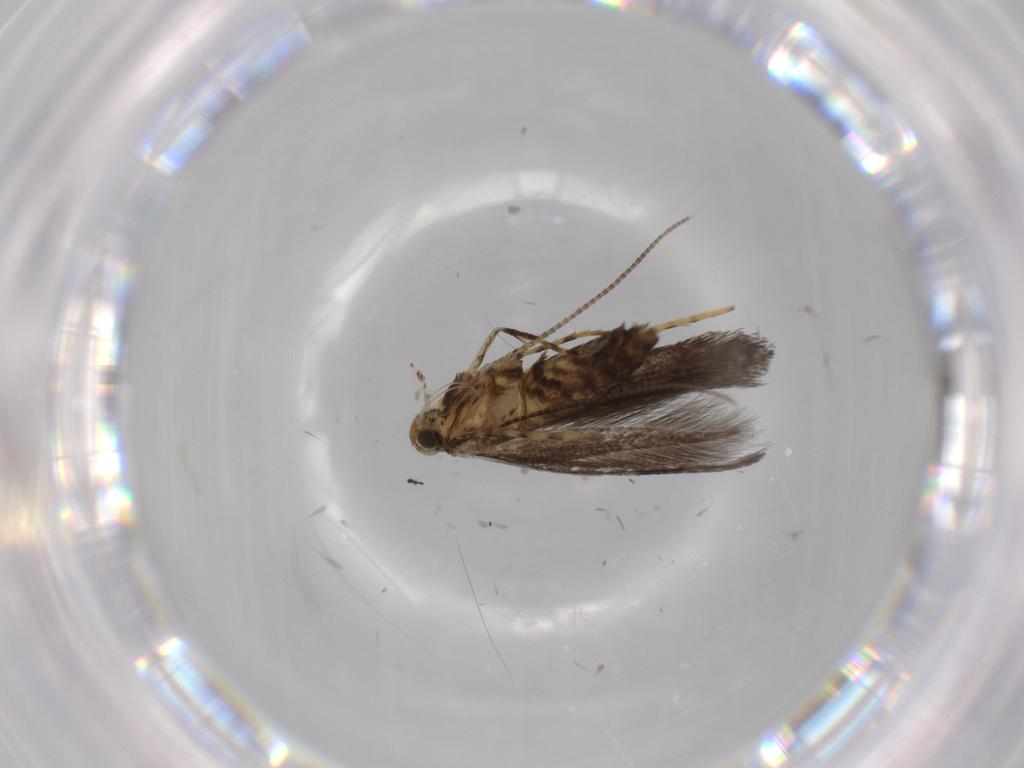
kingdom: Animalia
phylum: Arthropoda
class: Insecta
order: Lepidoptera
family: Nepticulidae
